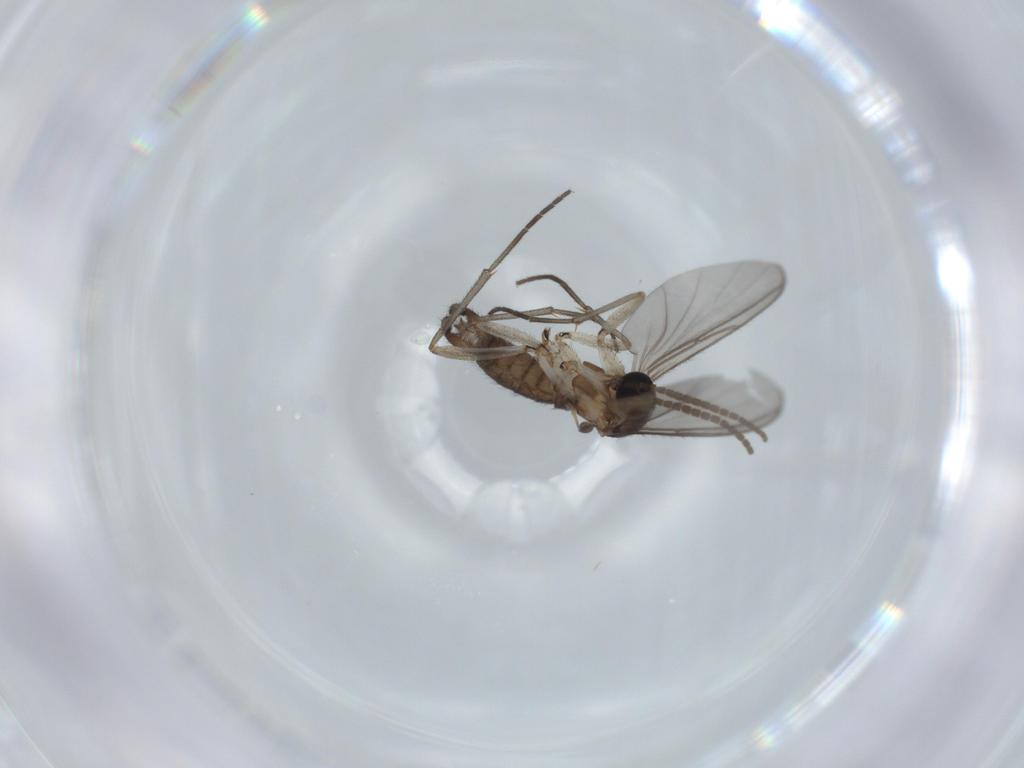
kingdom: Animalia
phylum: Arthropoda
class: Insecta
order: Diptera
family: Sciaridae
